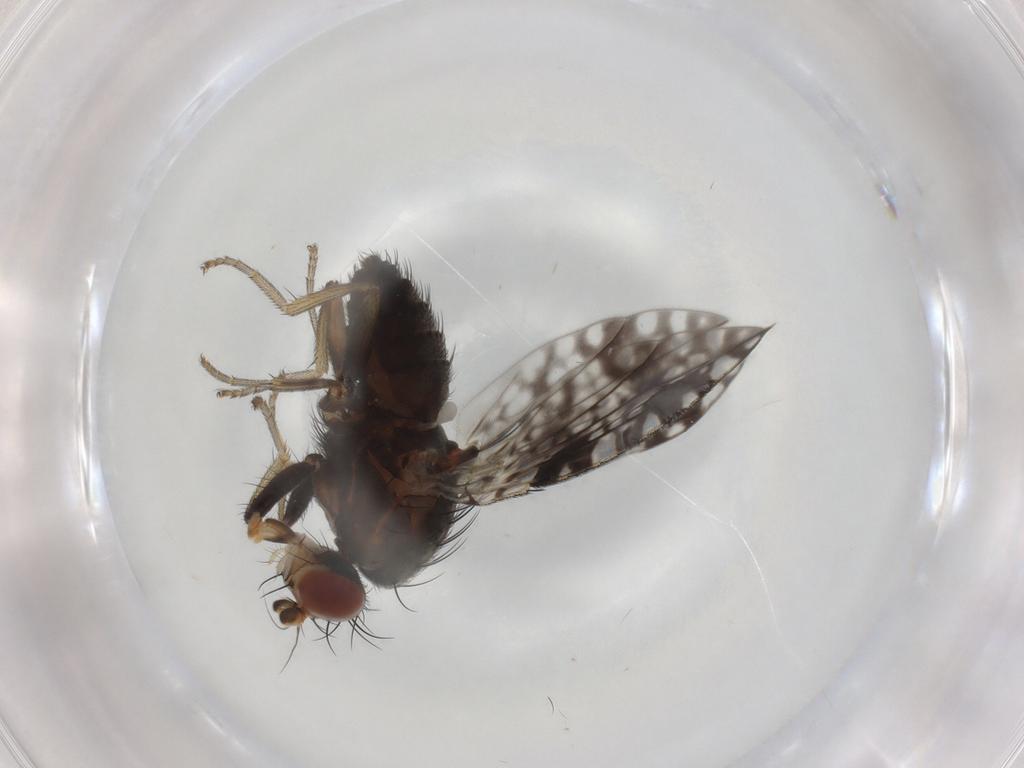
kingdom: Animalia
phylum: Arthropoda
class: Insecta
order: Diptera
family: Tephritidae
